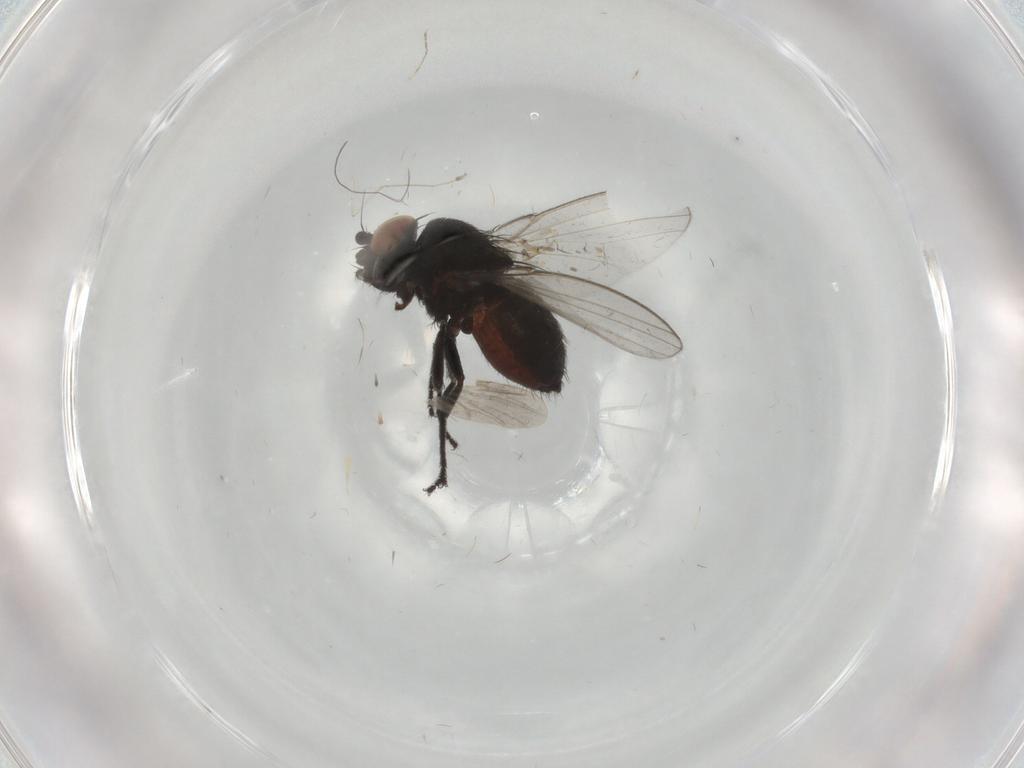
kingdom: Animalia
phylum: Arthropoda
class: Insecta
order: Diptera
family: Milichiidae
